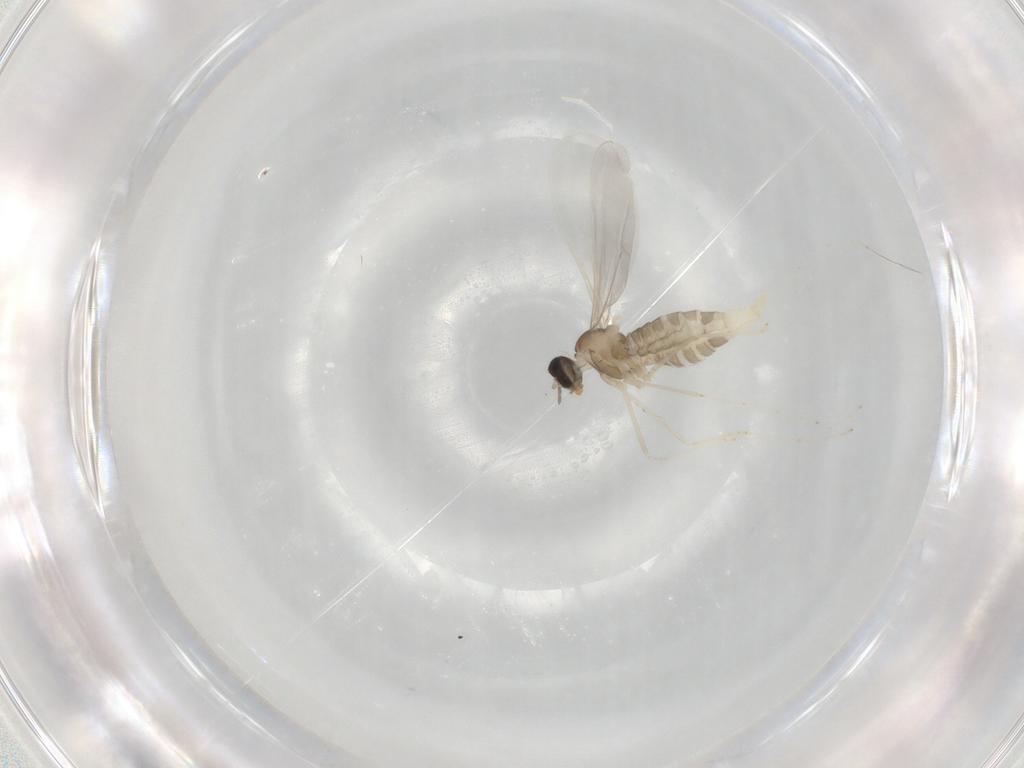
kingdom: Animalia
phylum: Arthropoda
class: Insecta
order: Diptera
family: Cecidomyiidae
